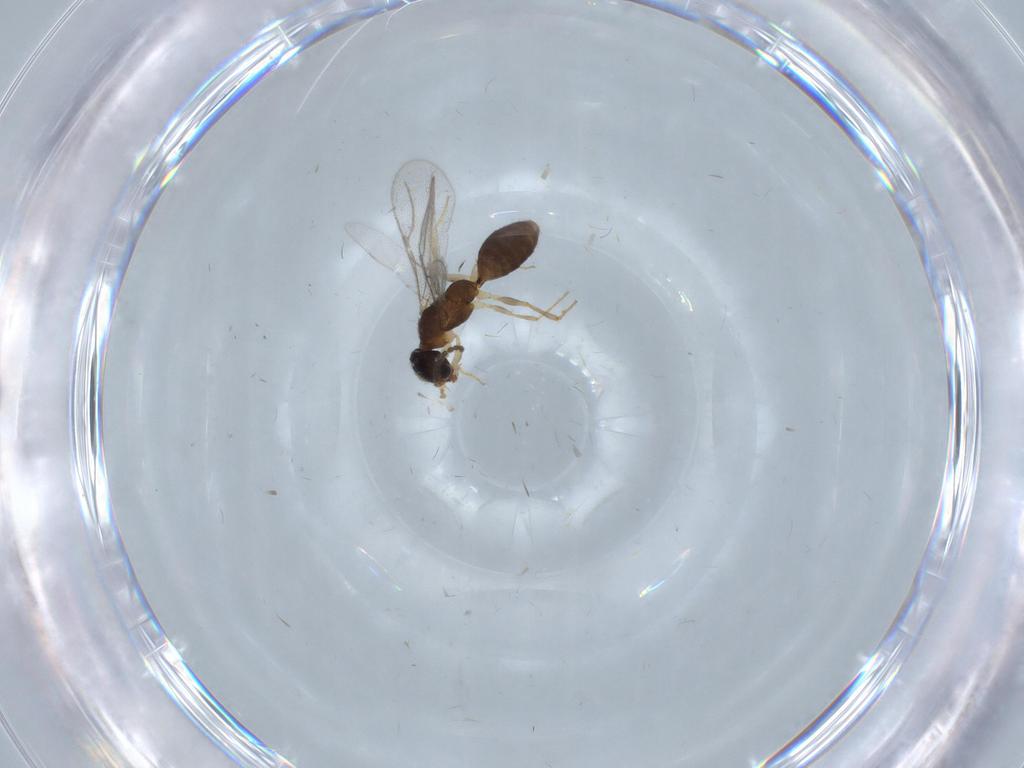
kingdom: Animalia
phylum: Arthropoda
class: Insecta
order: Hymenoptera
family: Bethylidae
